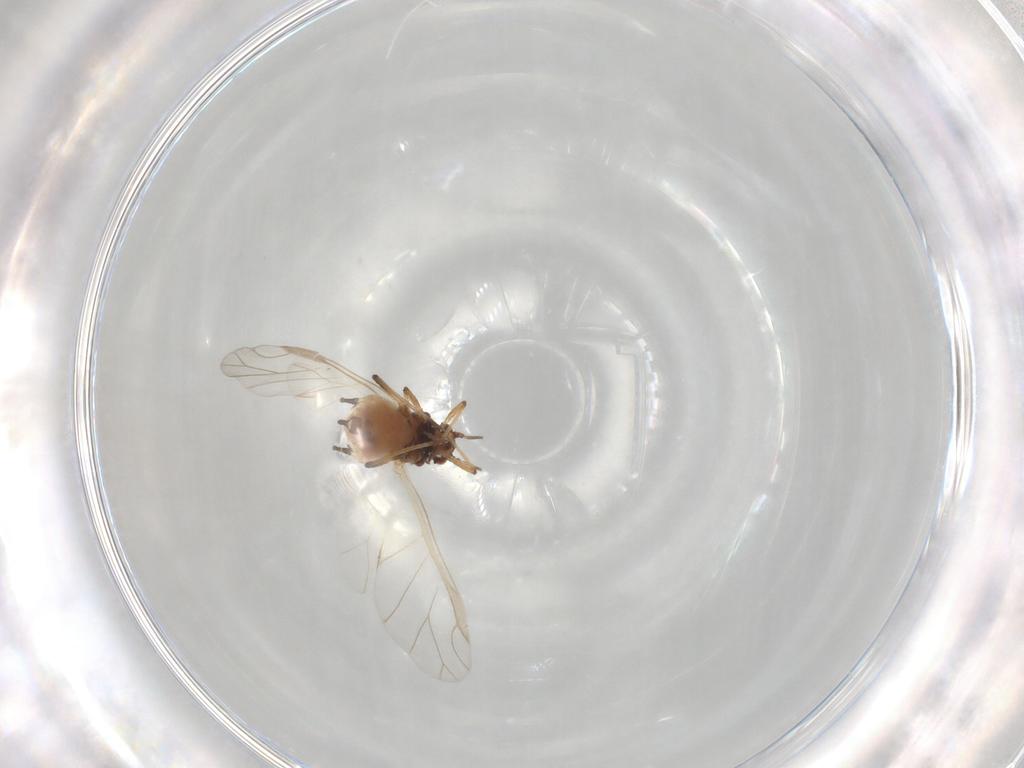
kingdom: Animalia
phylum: Arthropoda
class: Insecta
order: Hemiptera
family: Aphididae
